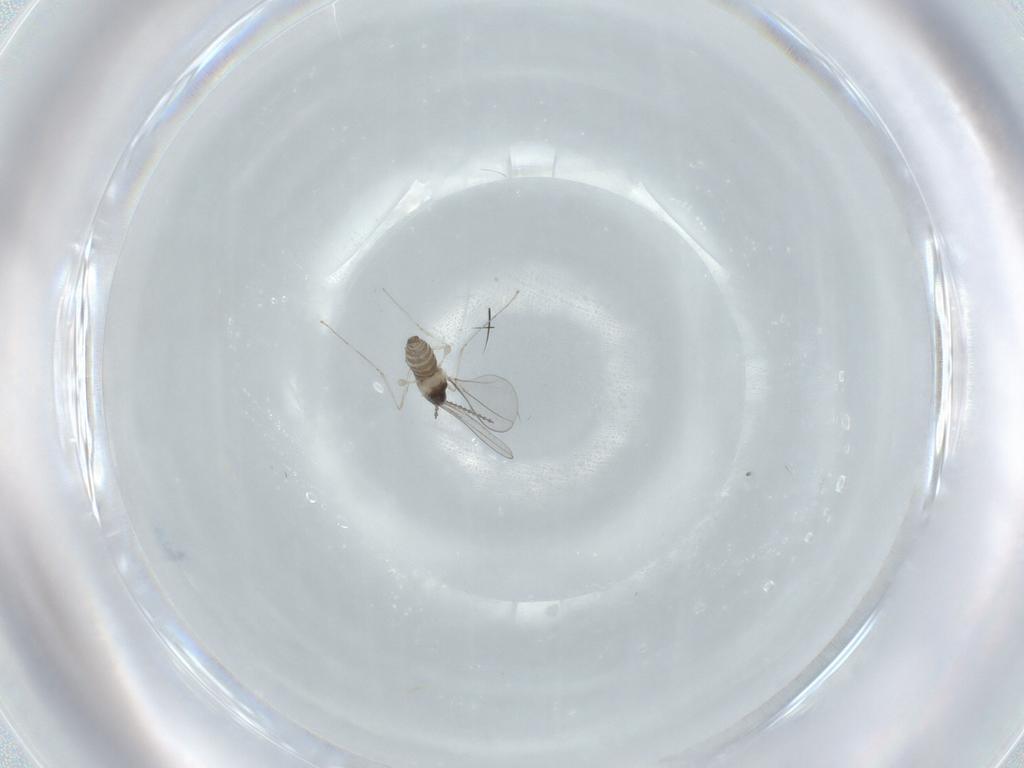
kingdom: Animalia
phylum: Arthropoda
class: Insecta
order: Diptera
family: Cecidomyiidae
